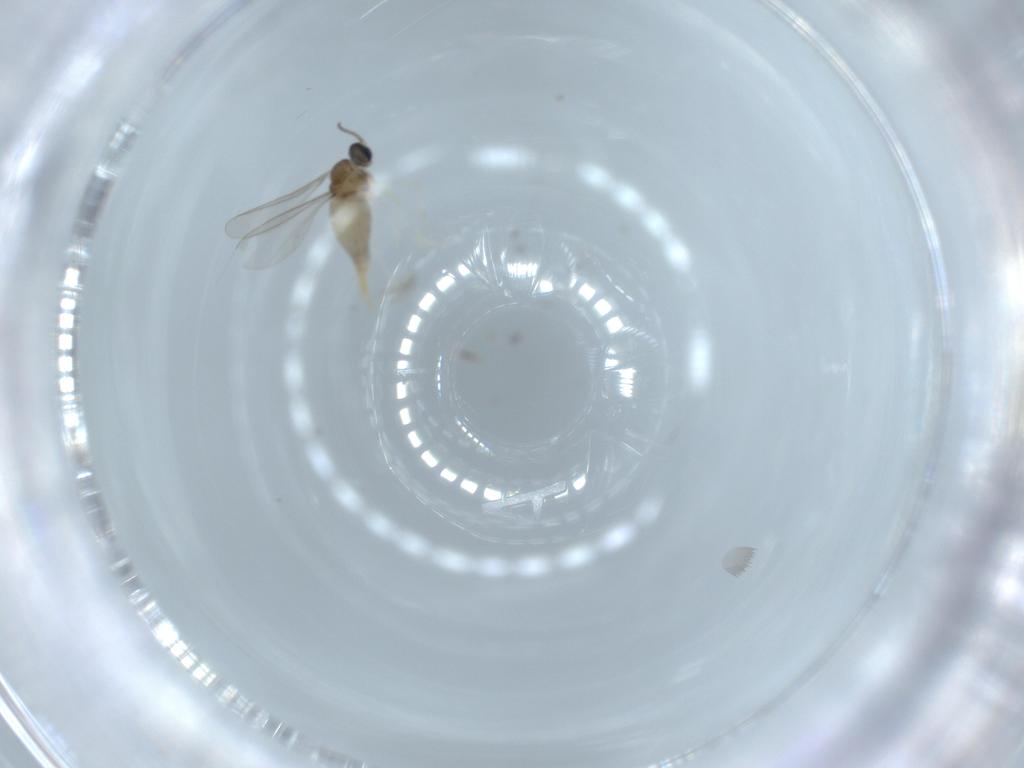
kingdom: Animalia
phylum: Arthropoda
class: Insecta
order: Diptera
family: Cecidomyiidae
